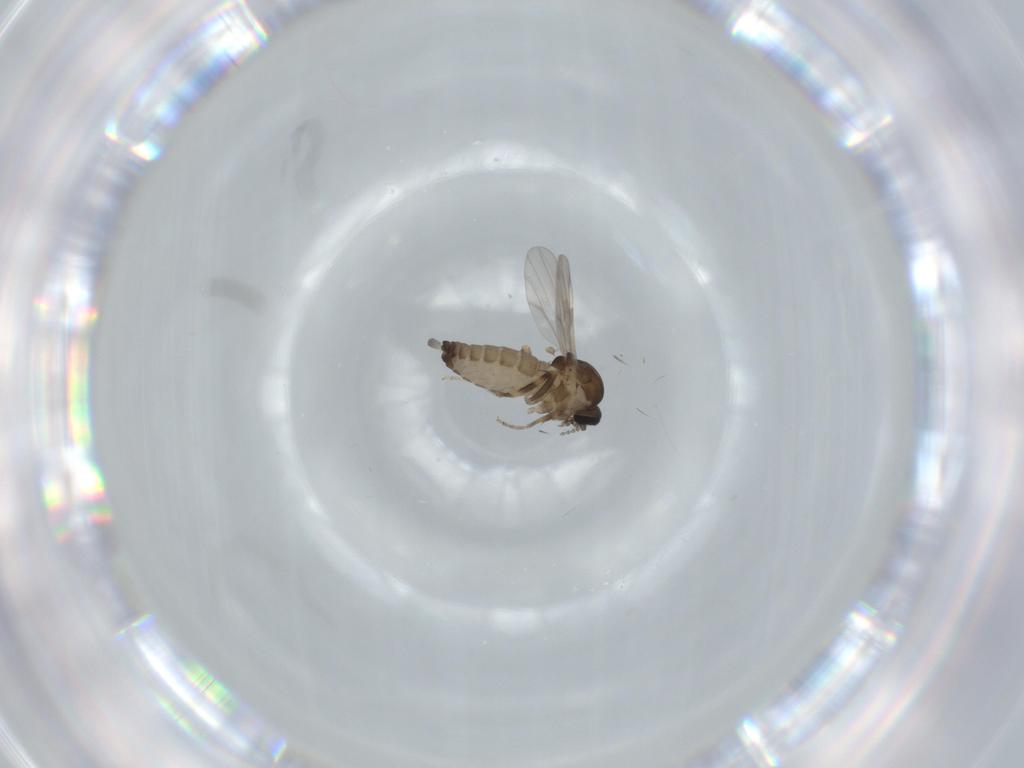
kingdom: Animalia
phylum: Arthropoda
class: Insecta
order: Diptera
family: Ceratopogonidae
